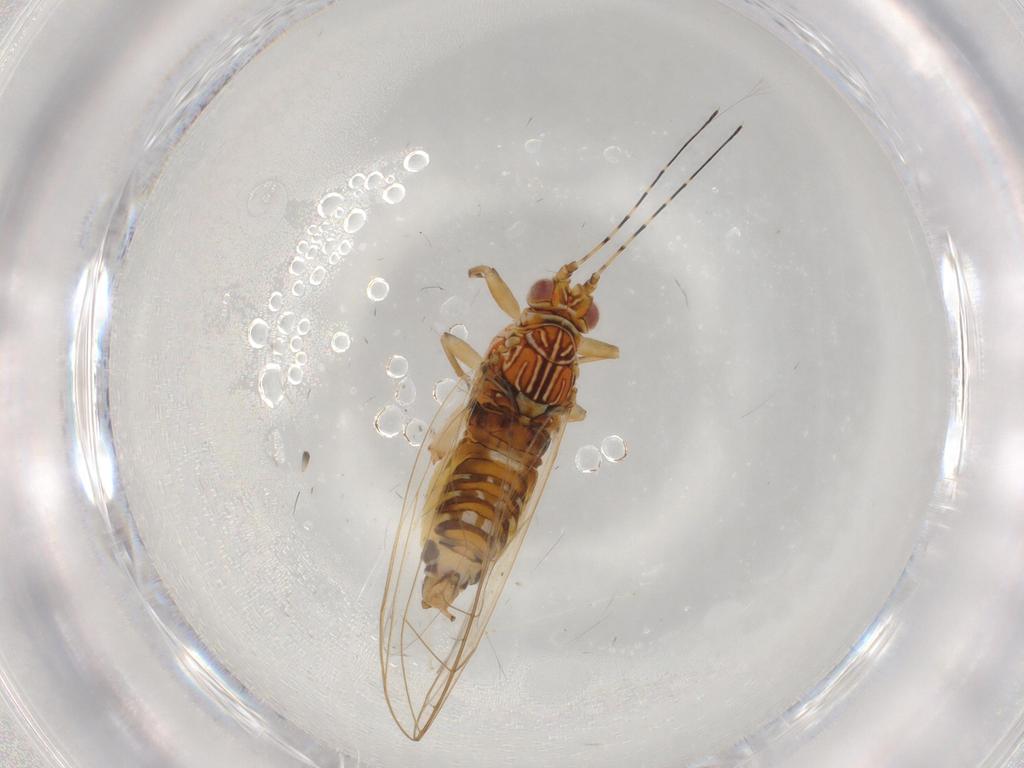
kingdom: Animalia
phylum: Arthropoda
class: Insecta
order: Hemiptera
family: Carsidaridae
